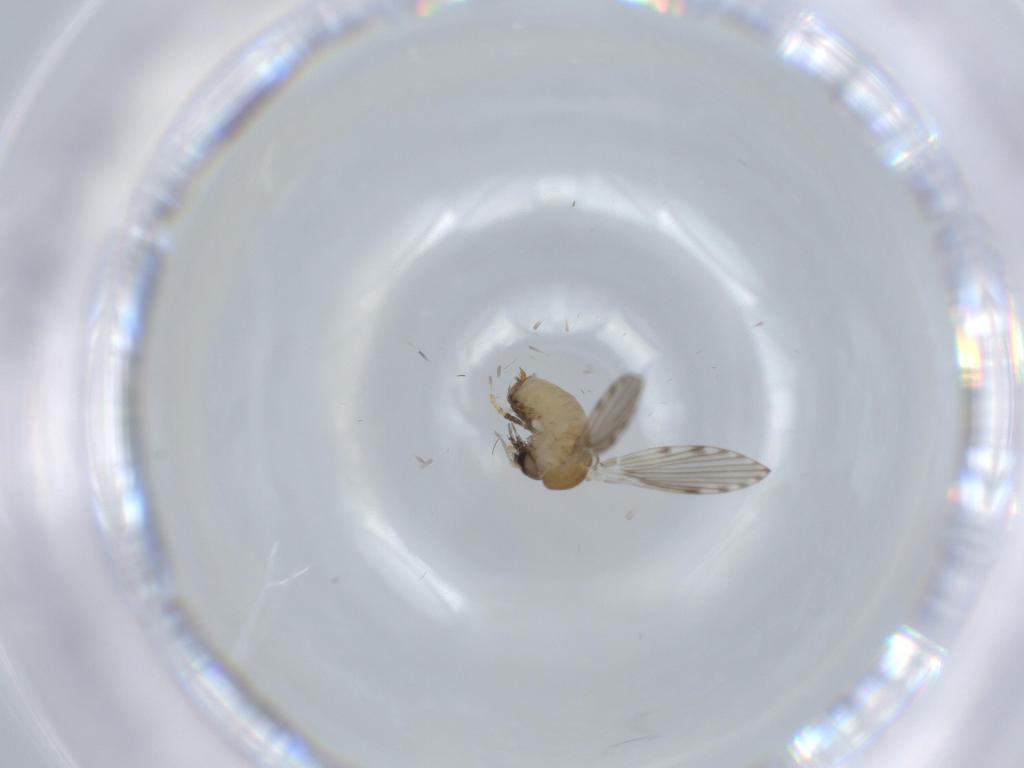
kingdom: Animalia
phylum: Arthropoda
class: Insecta
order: Diptera
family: Psychodidae
